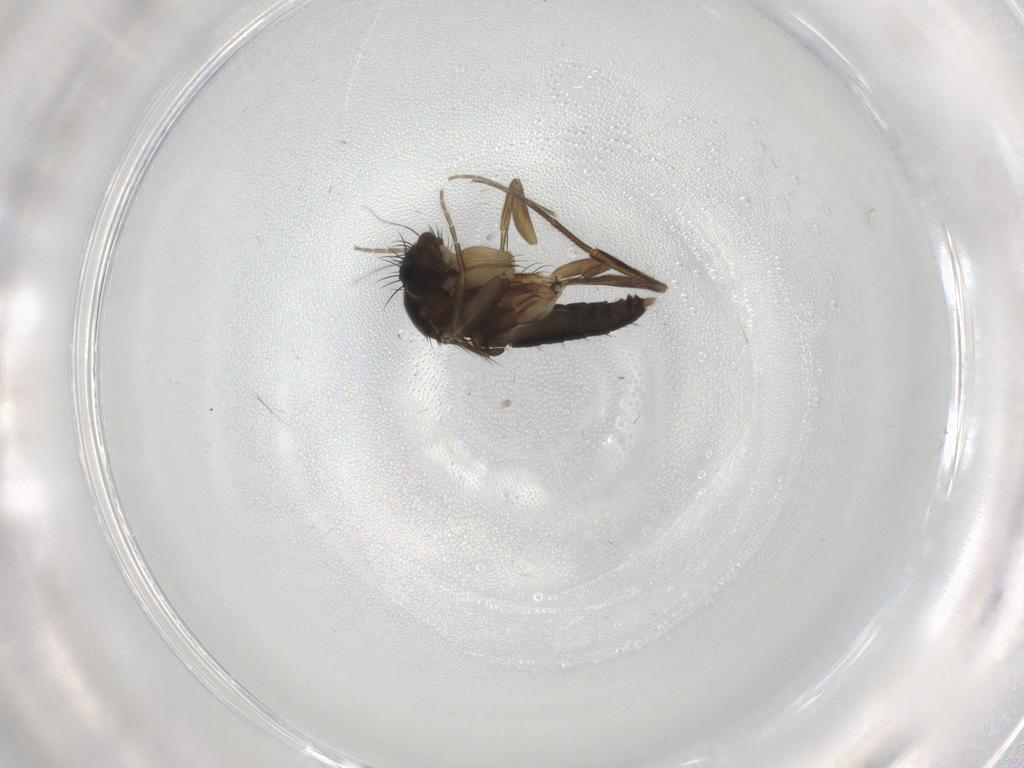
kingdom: Animalia
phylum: Arthropoda
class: Insecta
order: Diptera
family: Phoridae
